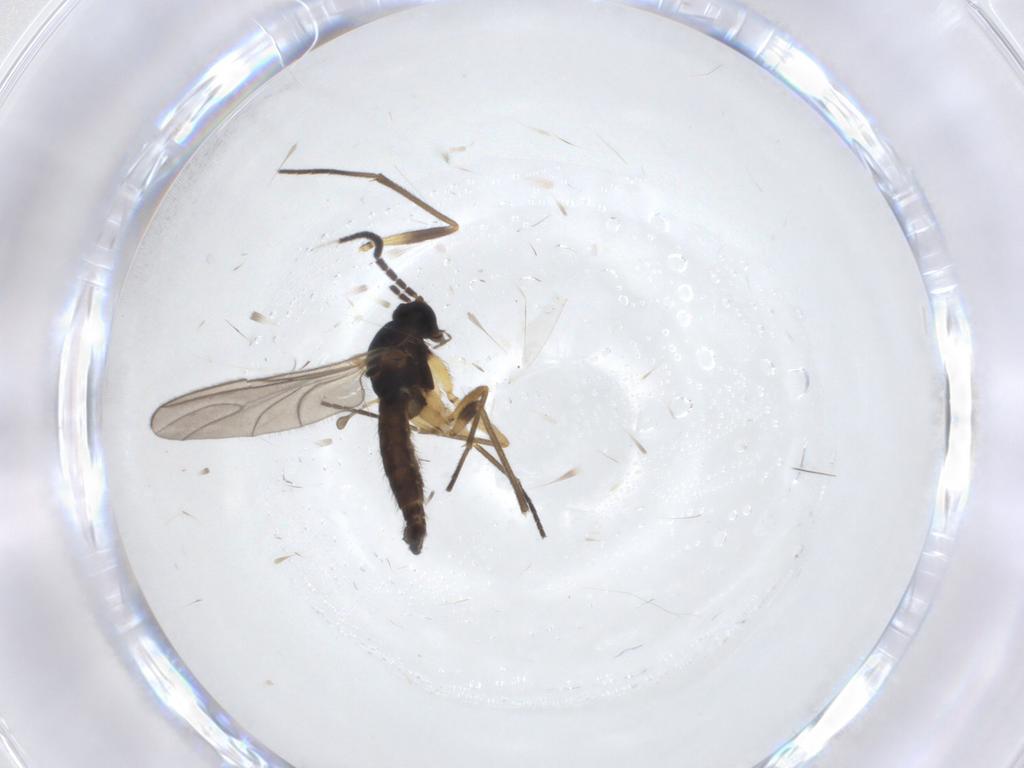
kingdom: Animalia
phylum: Arthropoda
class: Insecta
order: Diptera
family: Sciaridae
